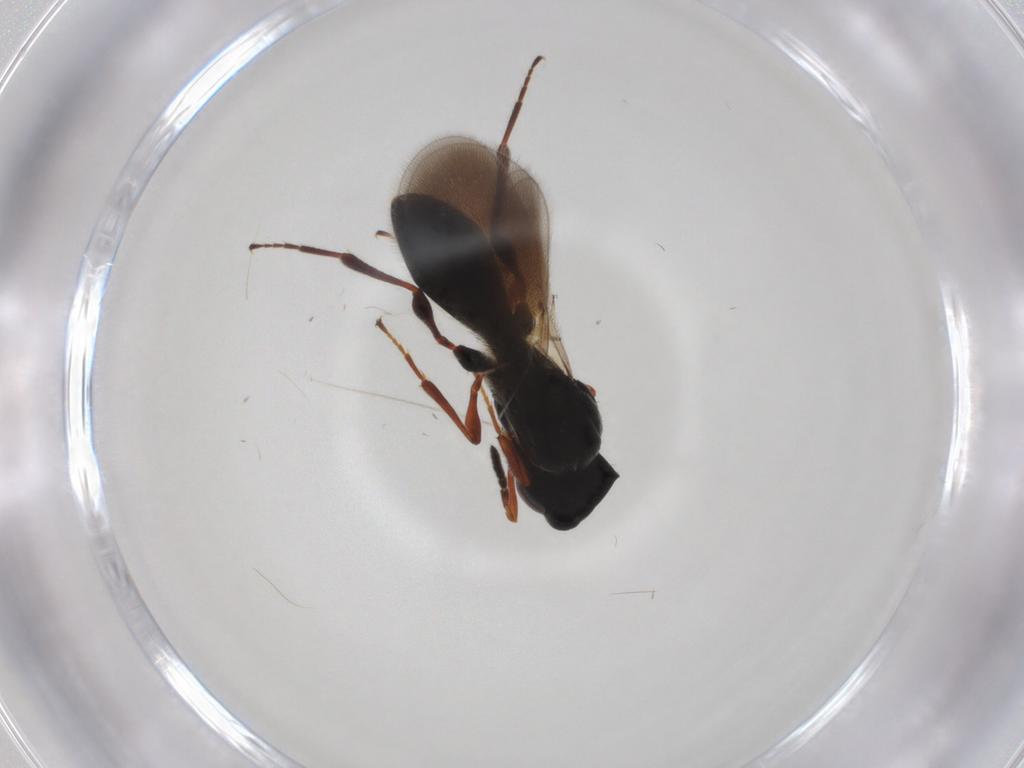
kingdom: Animalia
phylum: Arthropoda
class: Insecta
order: Hymenoptera
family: Platygastridae
